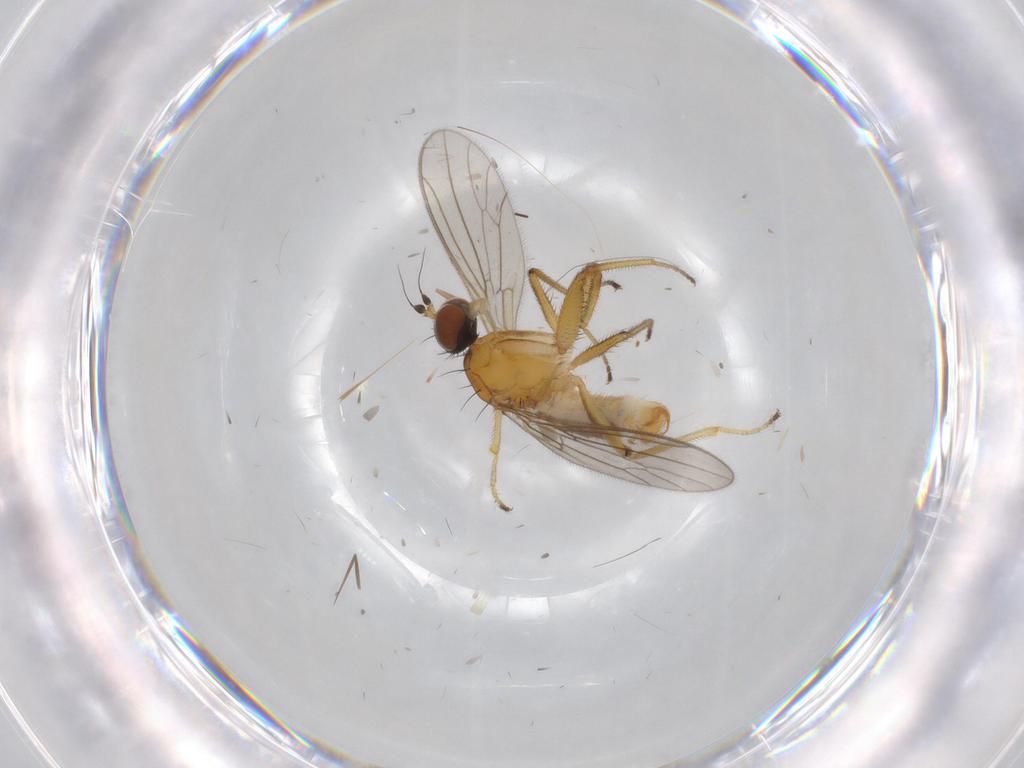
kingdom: Animalia
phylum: Arthropoda
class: Insecta
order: Diptera
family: Empididae
